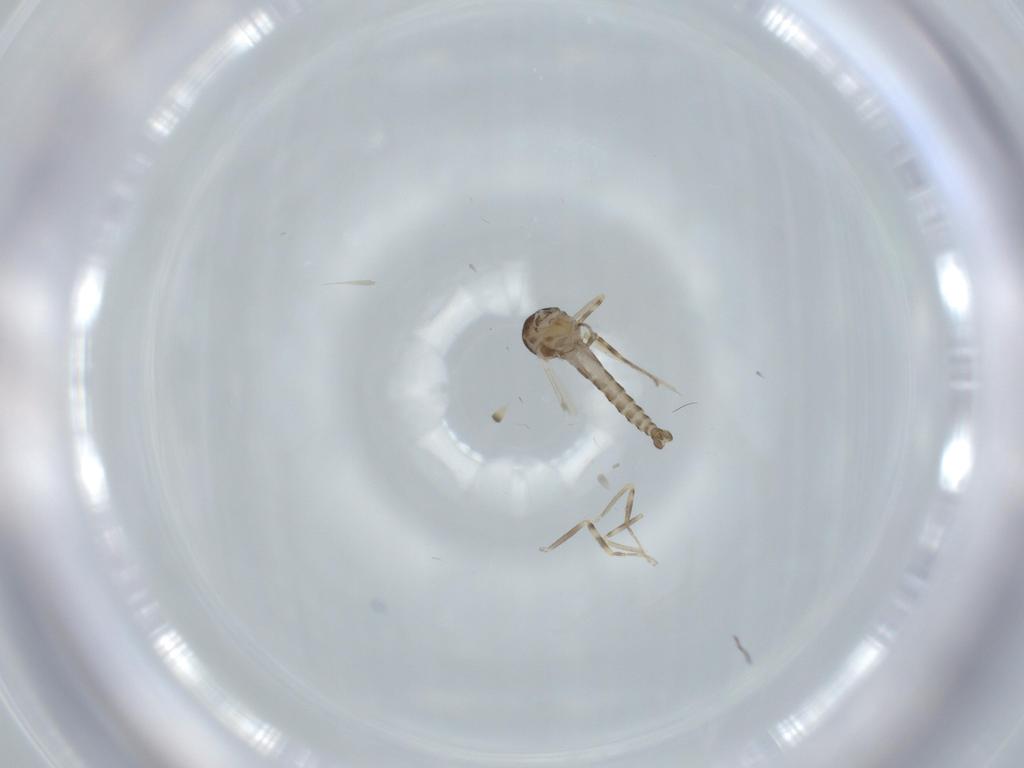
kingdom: Animalia
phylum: Arthropoda
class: Insecta
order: Diptera
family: Ceratopogonidae
